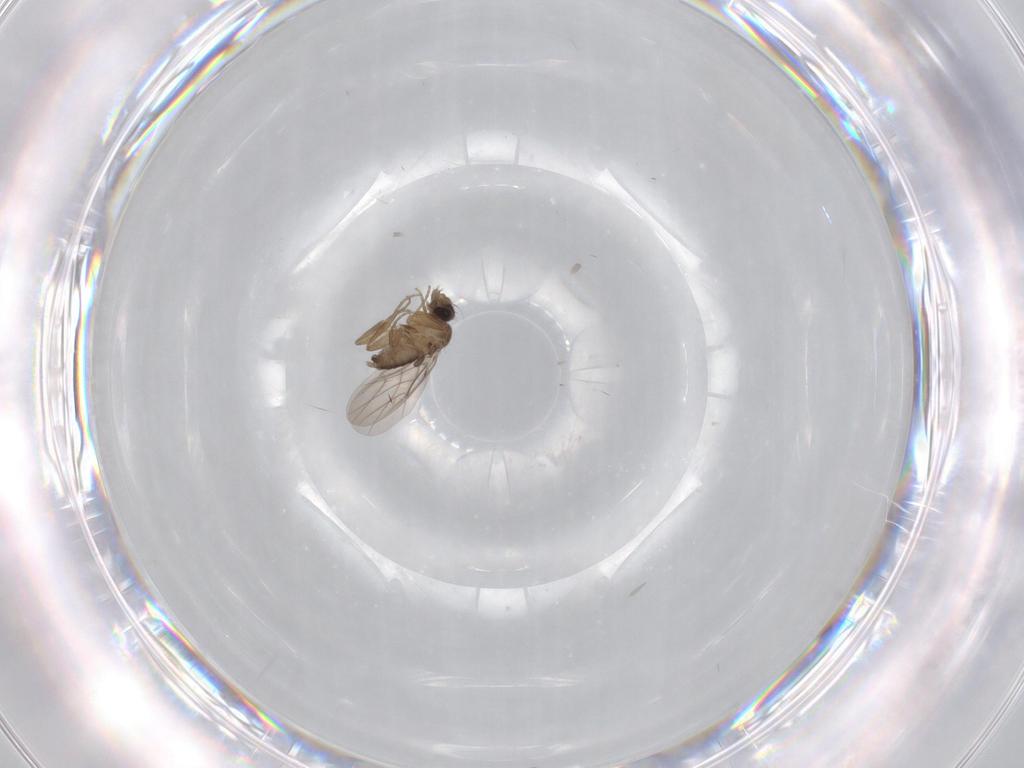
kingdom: Animalia
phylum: Arthropoda
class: Insecta
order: Diptera
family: Phoridae
